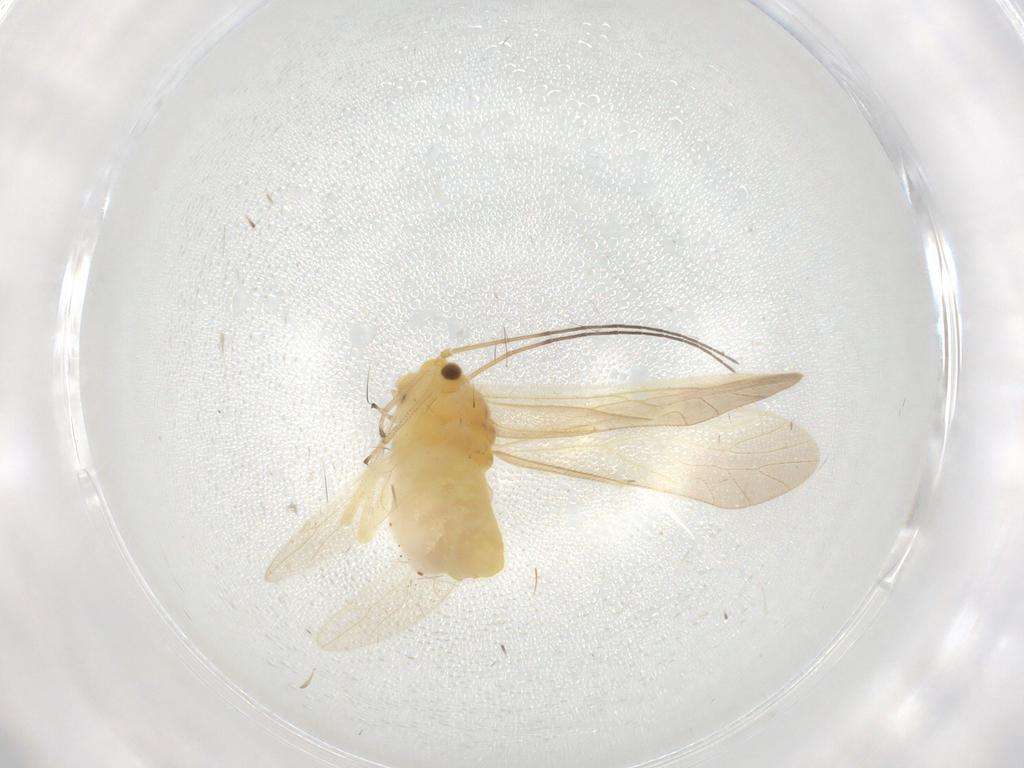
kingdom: Animalia
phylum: Arthropoda
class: Insecta
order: Psocodea
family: Caeciliusidae
